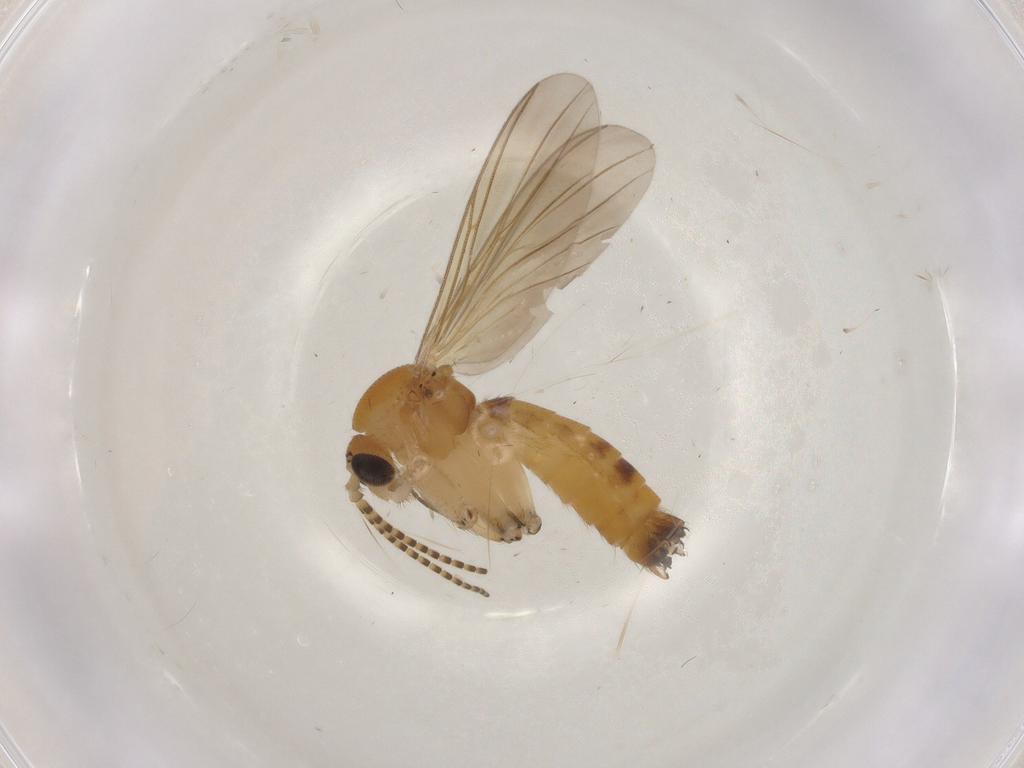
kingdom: Animalia
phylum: Arthropoda
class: Insecta
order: Diptera
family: Mycetophilidae
